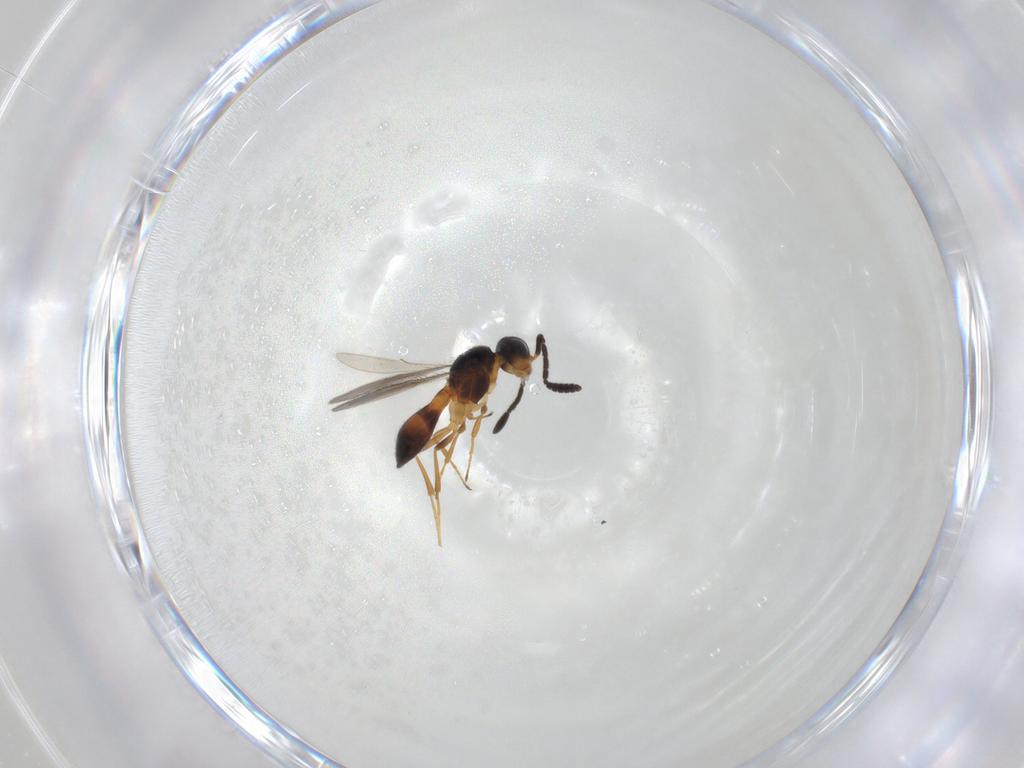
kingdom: Animalia
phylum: Arthropoda
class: Insecta
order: Hymenoptera
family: Scelionidae
